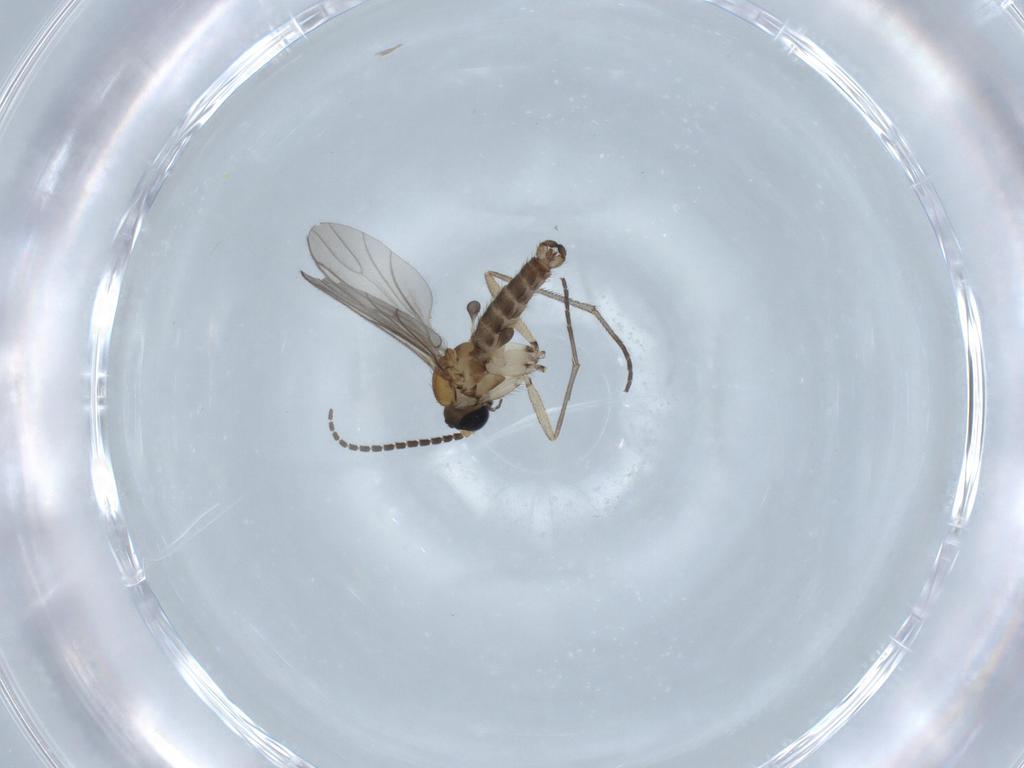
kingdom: Animalia
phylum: Arthropoda
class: Insecta
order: Diptera
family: Sciaridae
